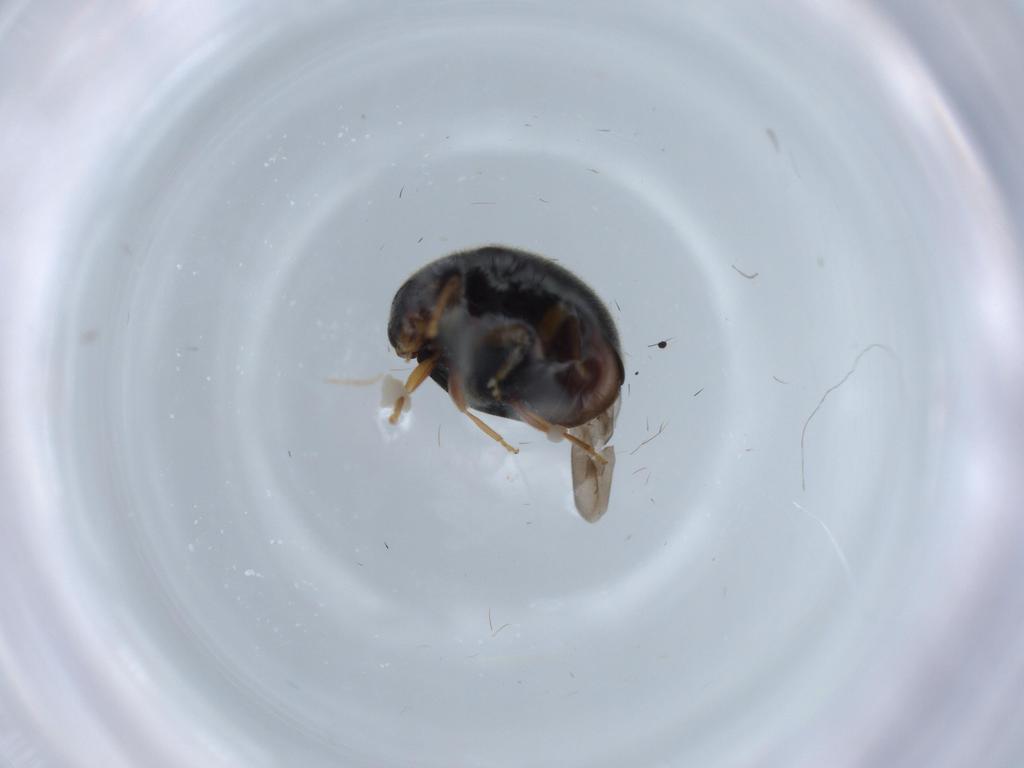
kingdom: Animalia
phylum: Arthropoda
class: Insecta
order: Coleoptera
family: Coccinellidae
